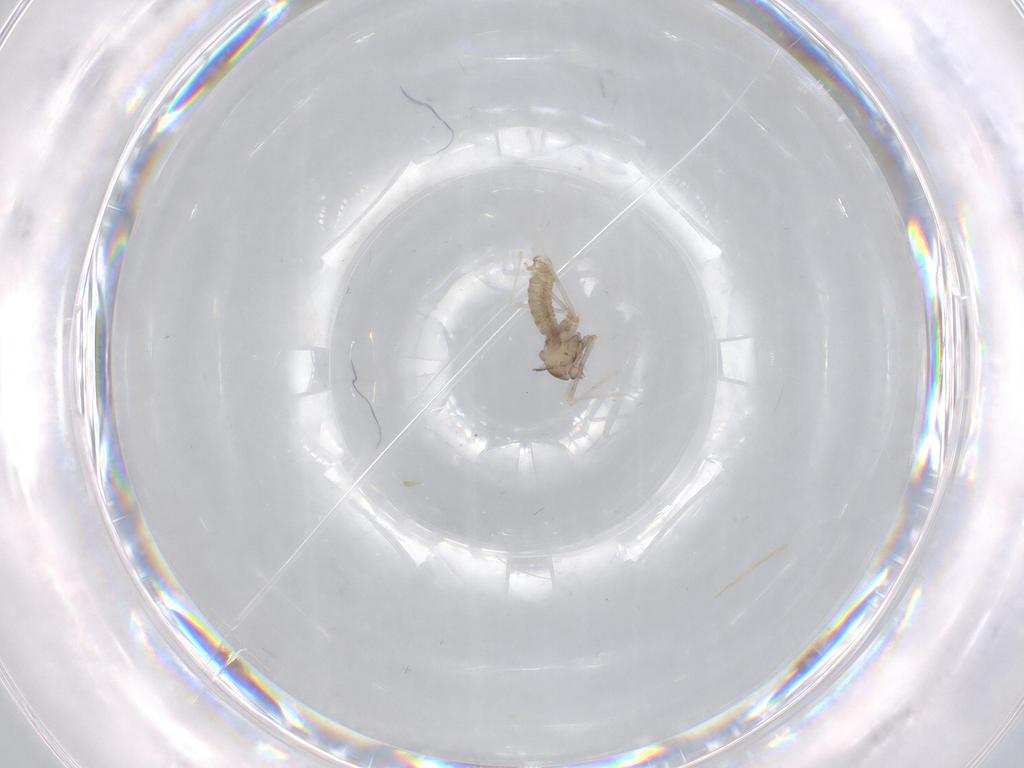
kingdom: Animalia
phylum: Arthropoda
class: Insecta
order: Diptera
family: Cecidomyiidae
